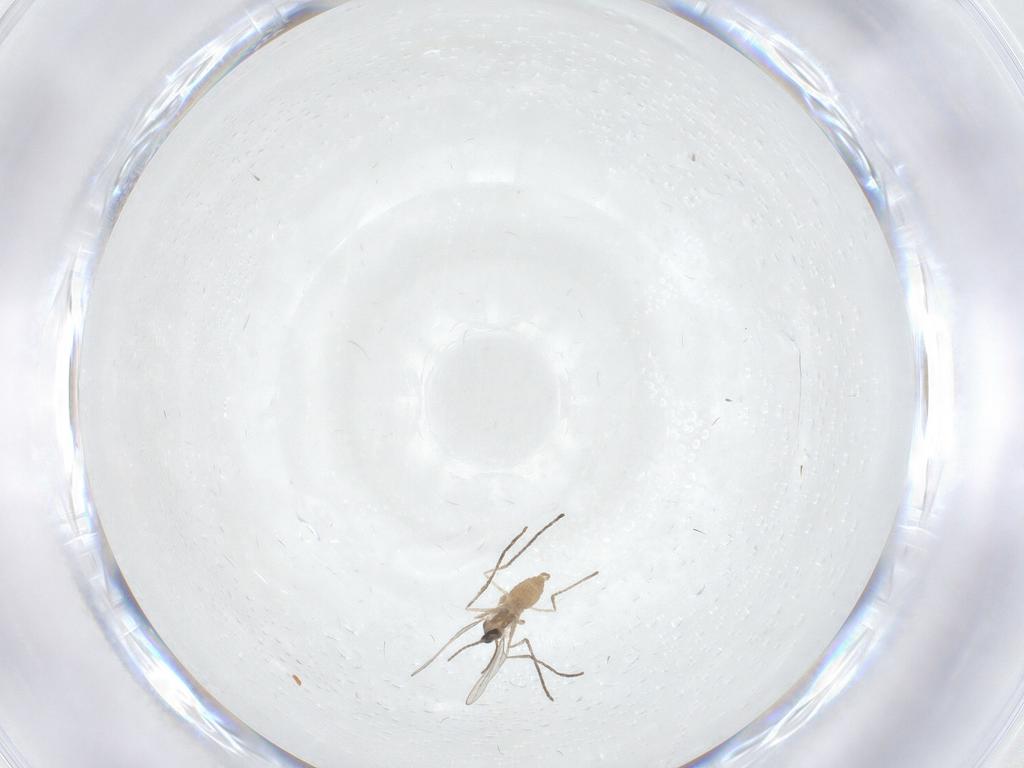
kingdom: Animalia
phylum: Arthropoda
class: Insecta
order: Diptera
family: Cecidomyiidae
